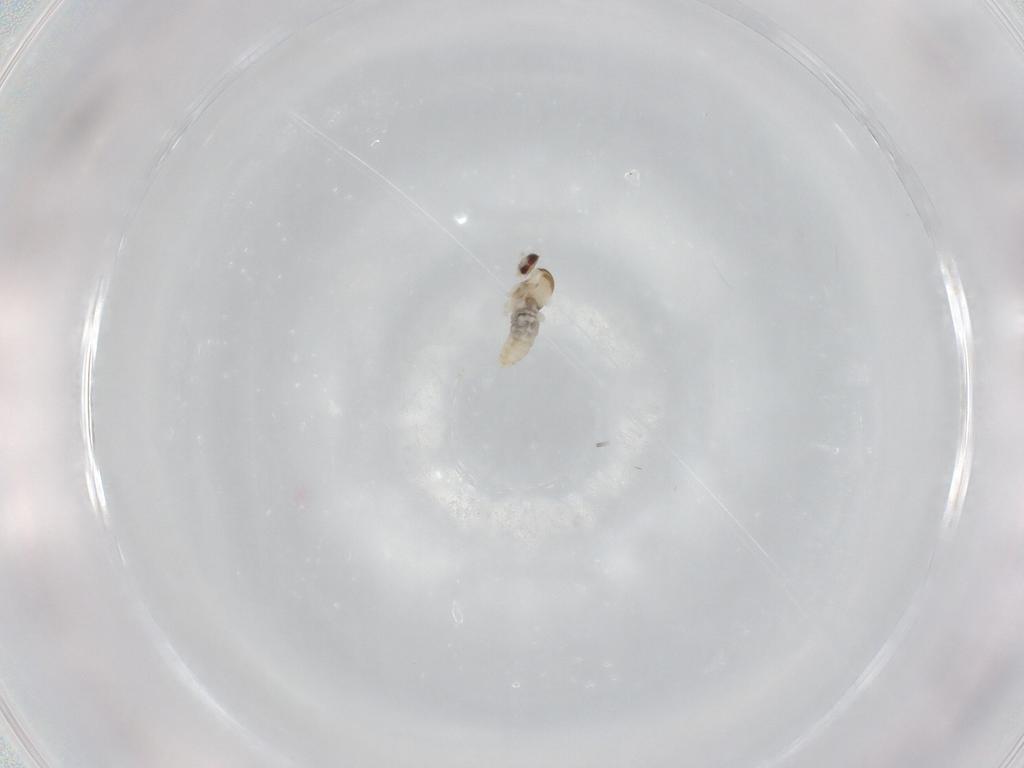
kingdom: Animalia
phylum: Arthropoda
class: Insecta
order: Diptera
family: Cecidomyiidae
